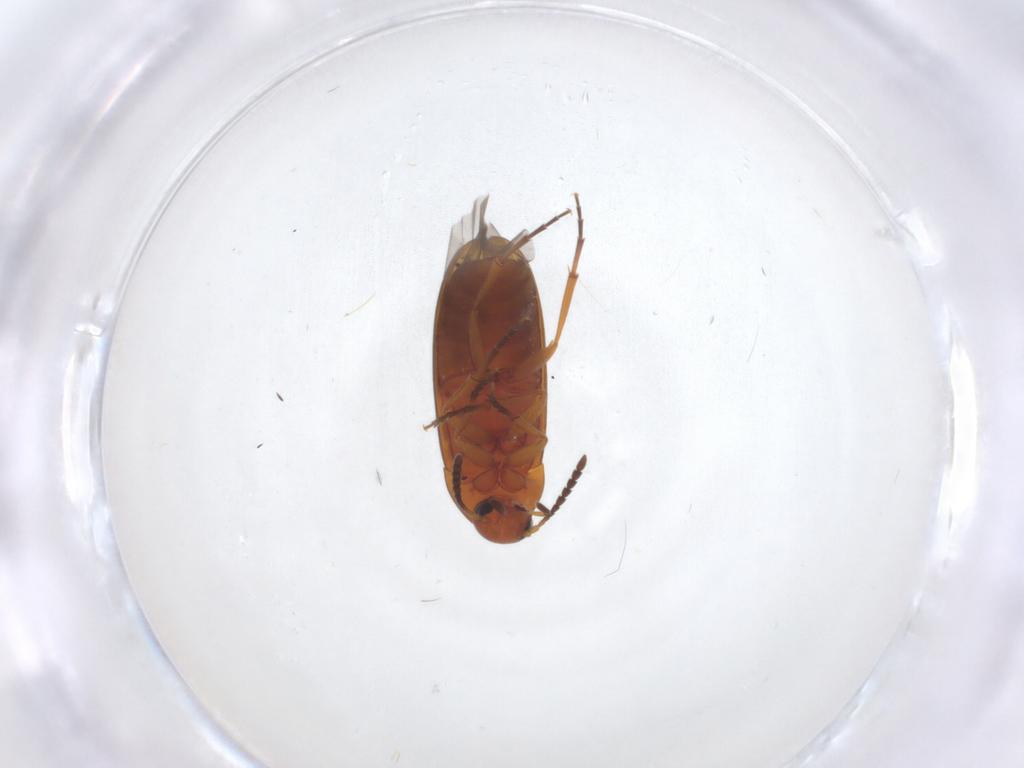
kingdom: Animalia
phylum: Arthropoda
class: Insecta
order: Coleoptera
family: Scraptiidae
